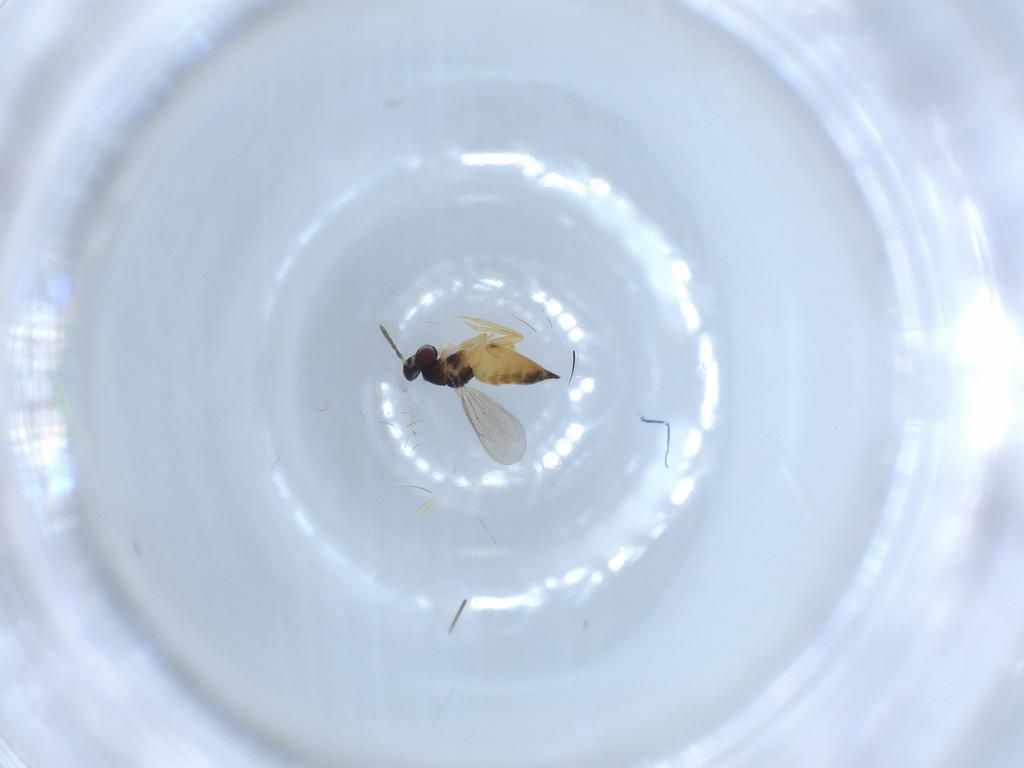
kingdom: Animalia
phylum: Arthropoda
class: Insecta
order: Hymenoptera
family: Eulophidae
